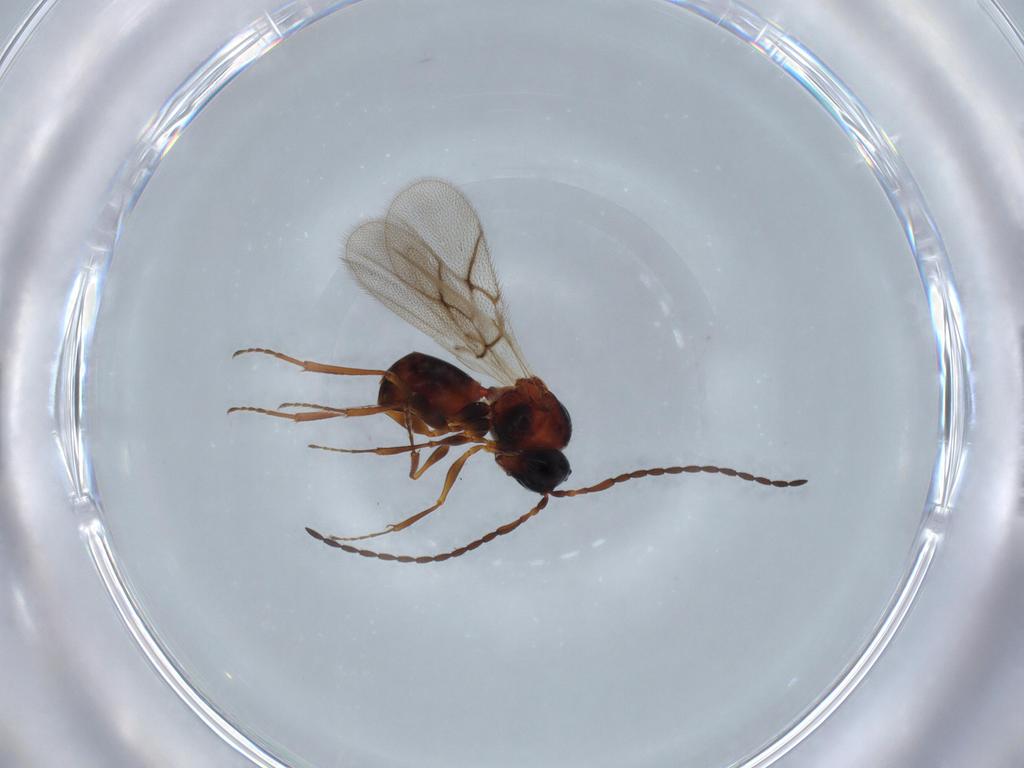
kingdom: Animalia
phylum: Arthropoda
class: Insecta
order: Hymenoptera
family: Figitidae
